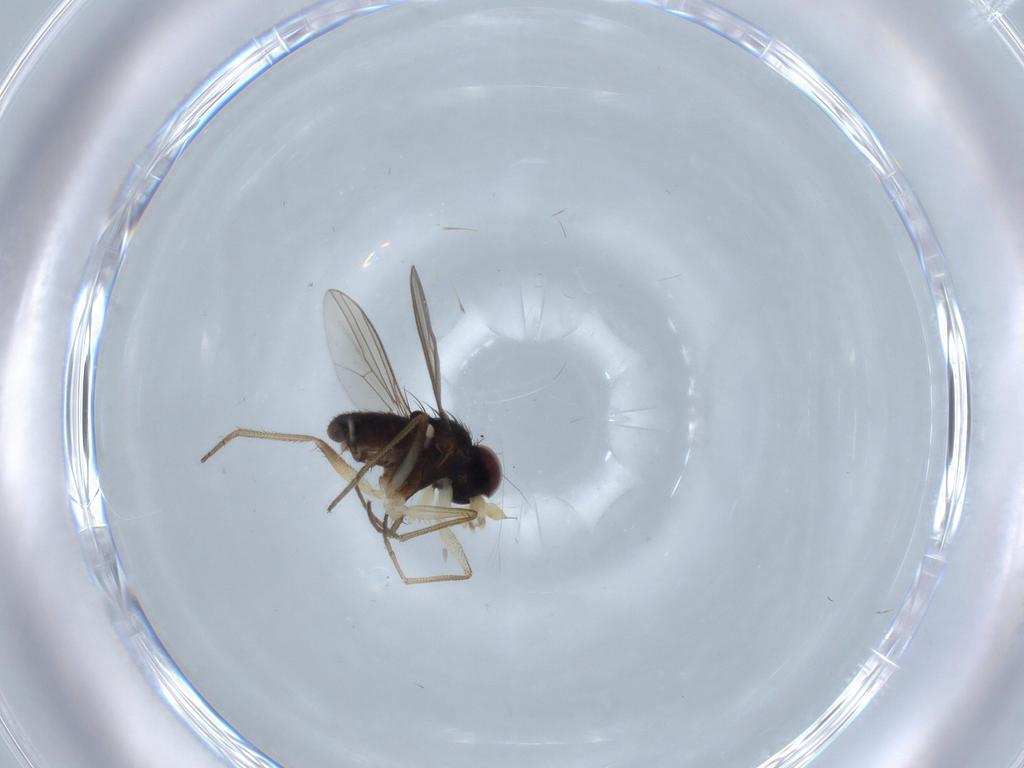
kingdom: Animalia
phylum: Arthropoda
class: Insecta
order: Diptera
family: Dolichopodidae
